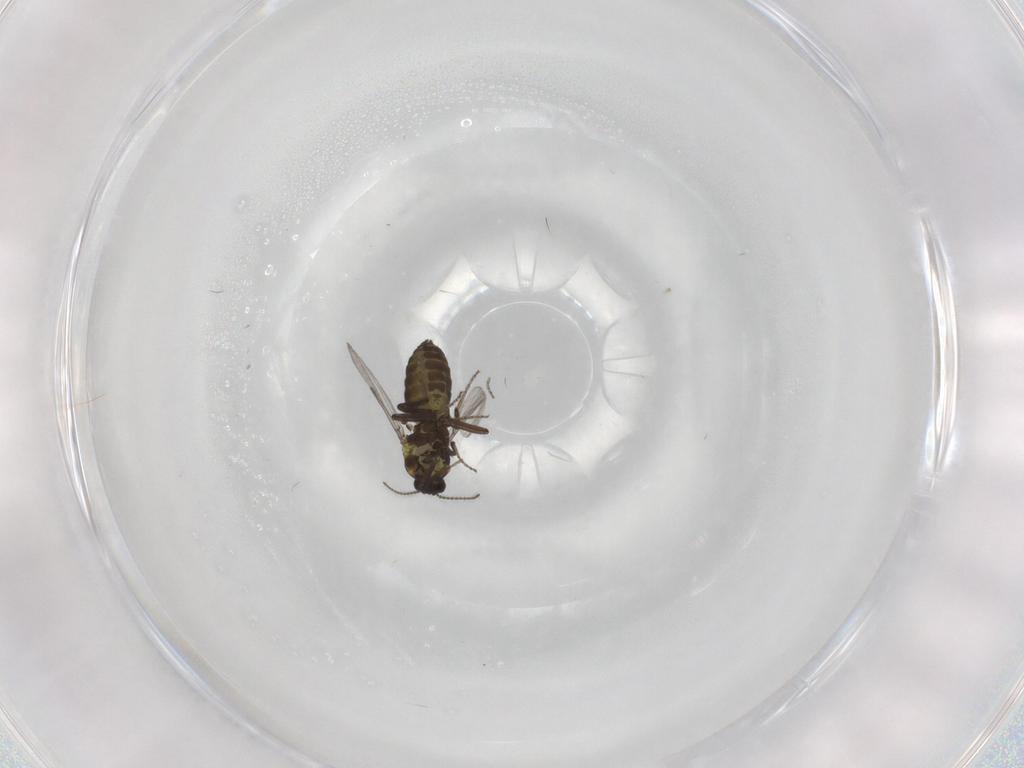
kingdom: Animalia
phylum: Arthropoda
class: Insecta
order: Diptera
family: Ceratopogonidae
